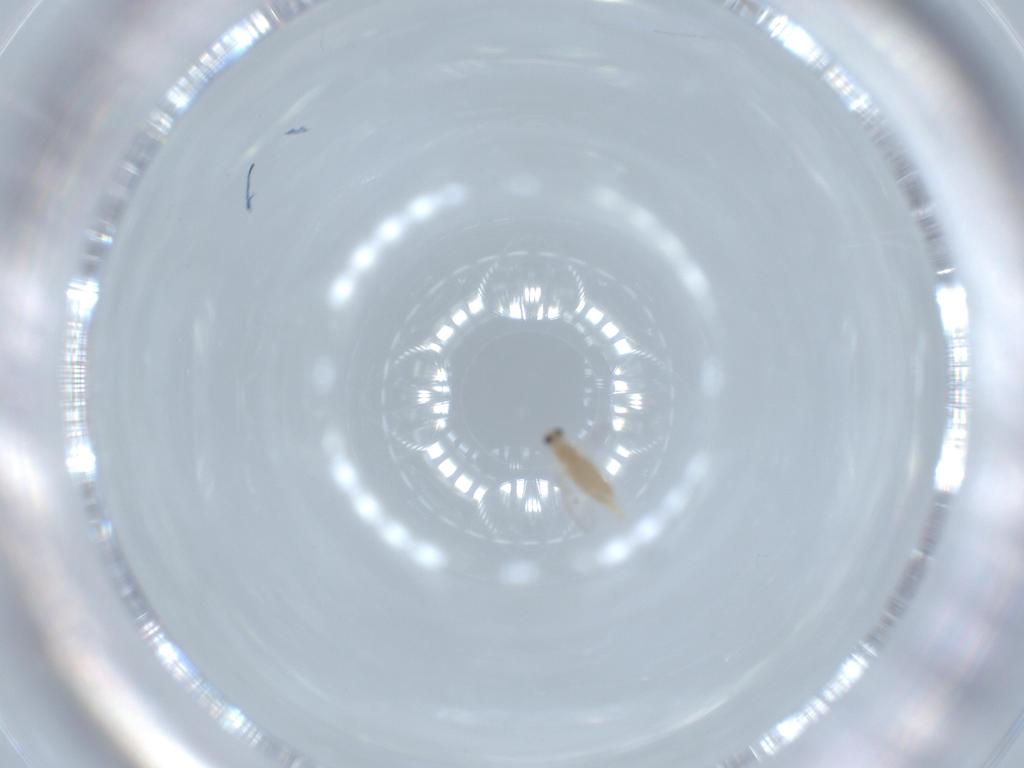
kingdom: Animalia
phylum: Arthropoda
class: Insecta
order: Diptera
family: Cecidomyiidae
